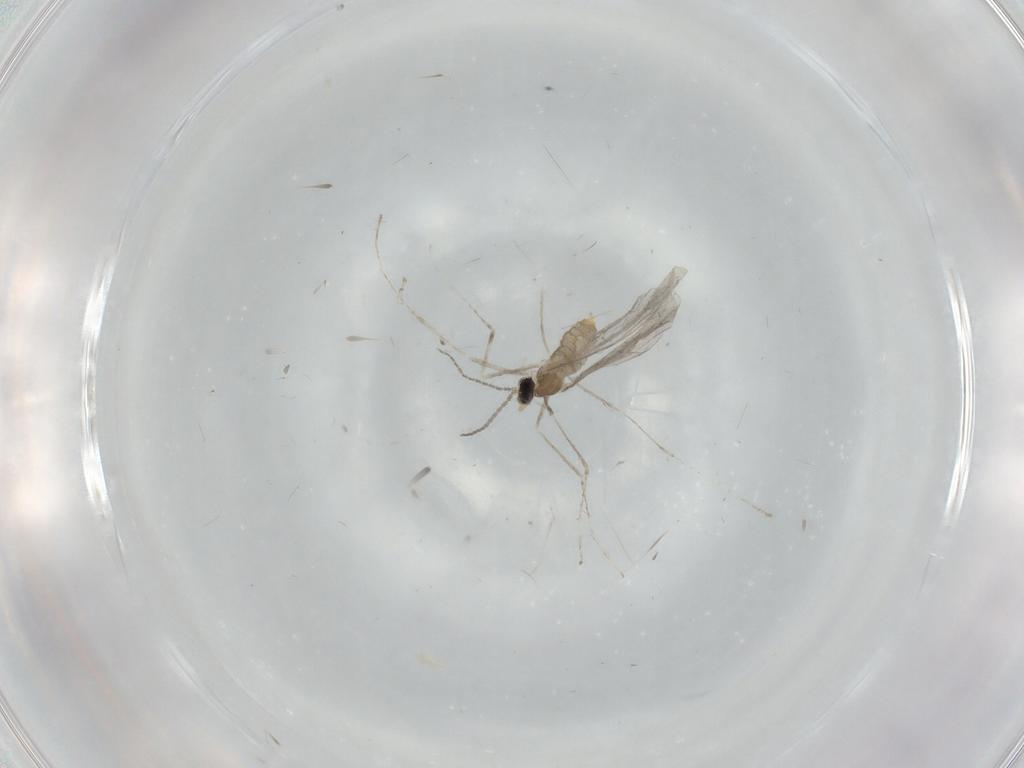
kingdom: Animalia
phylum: Arthropoda
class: Insecta
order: Diptera
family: Cecidomyiidae
